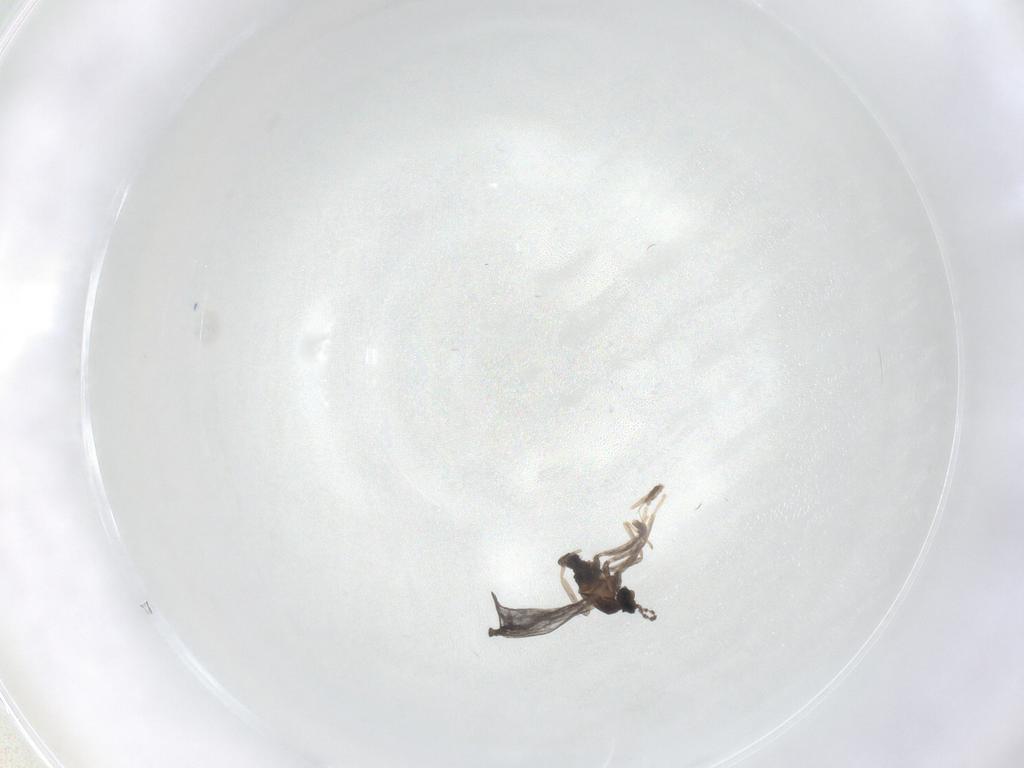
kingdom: Animalia
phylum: Arthropoda
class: Insecta
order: Diptera
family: Cecidomyiidae
